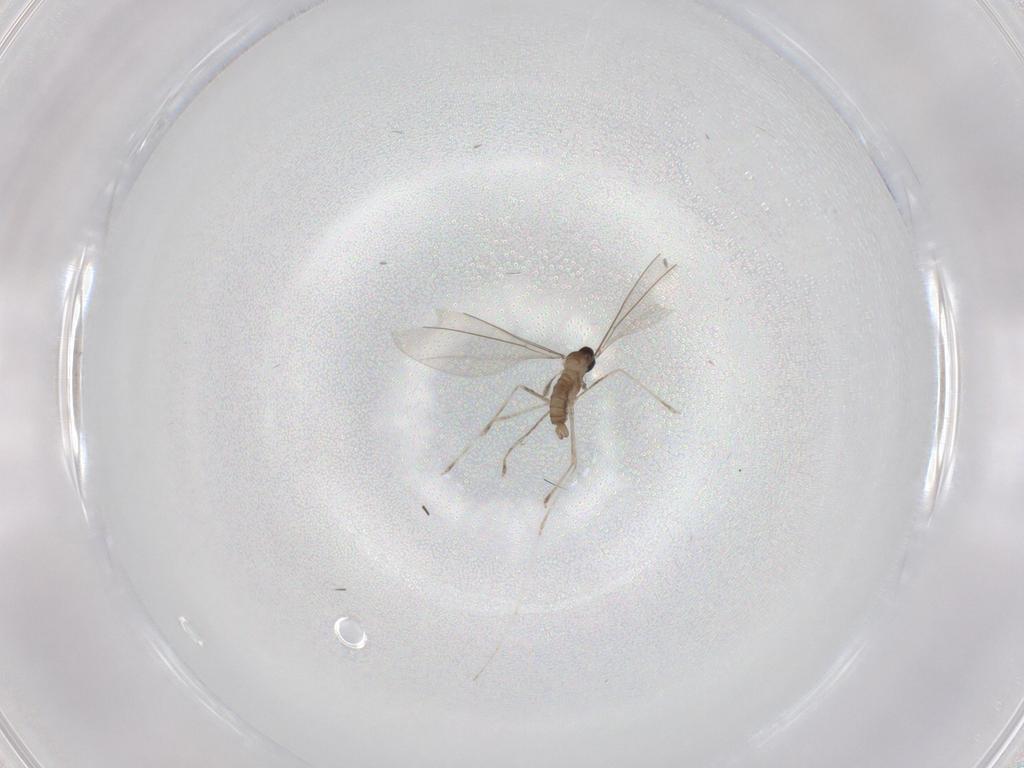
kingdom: Animalia
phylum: Arthropoda
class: Insecta
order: Diptera
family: Cecidomyiidae
